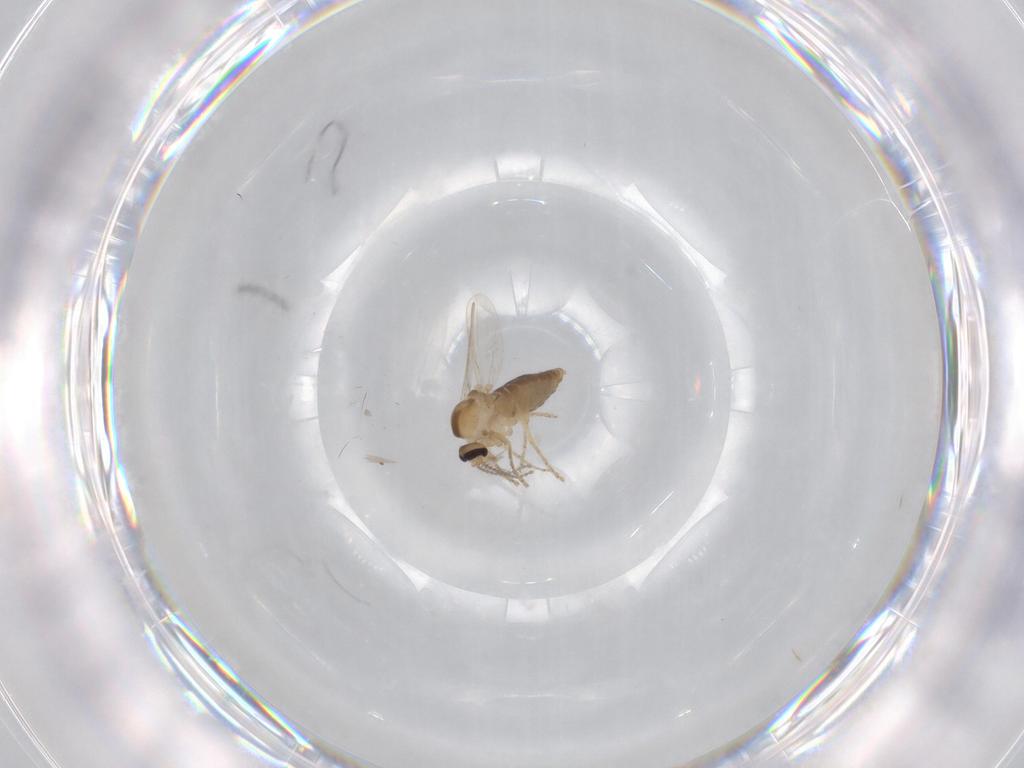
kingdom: Animalia
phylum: Arthropoda
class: Insecta
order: Diptera
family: Ceratopogonidae
